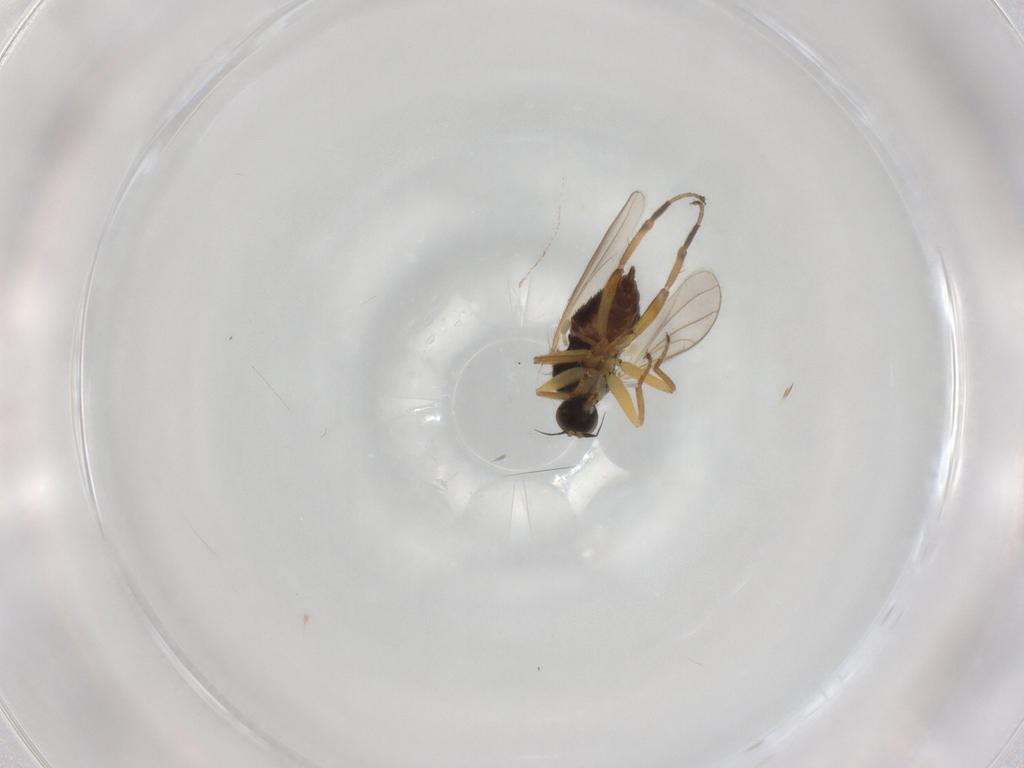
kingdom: Animalia
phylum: Arthropoda
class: Insecta
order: Diptera
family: Hybotidae
